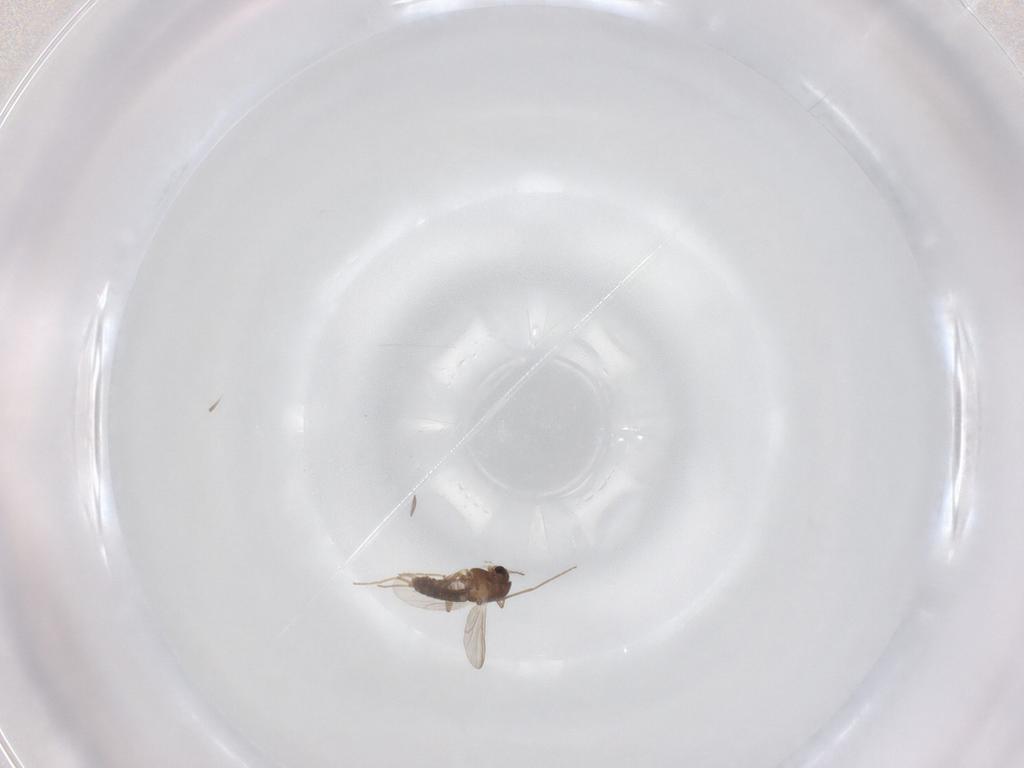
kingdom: Animalia
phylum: Arthropoda
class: Insecta
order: Diptera
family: Chironomidae
